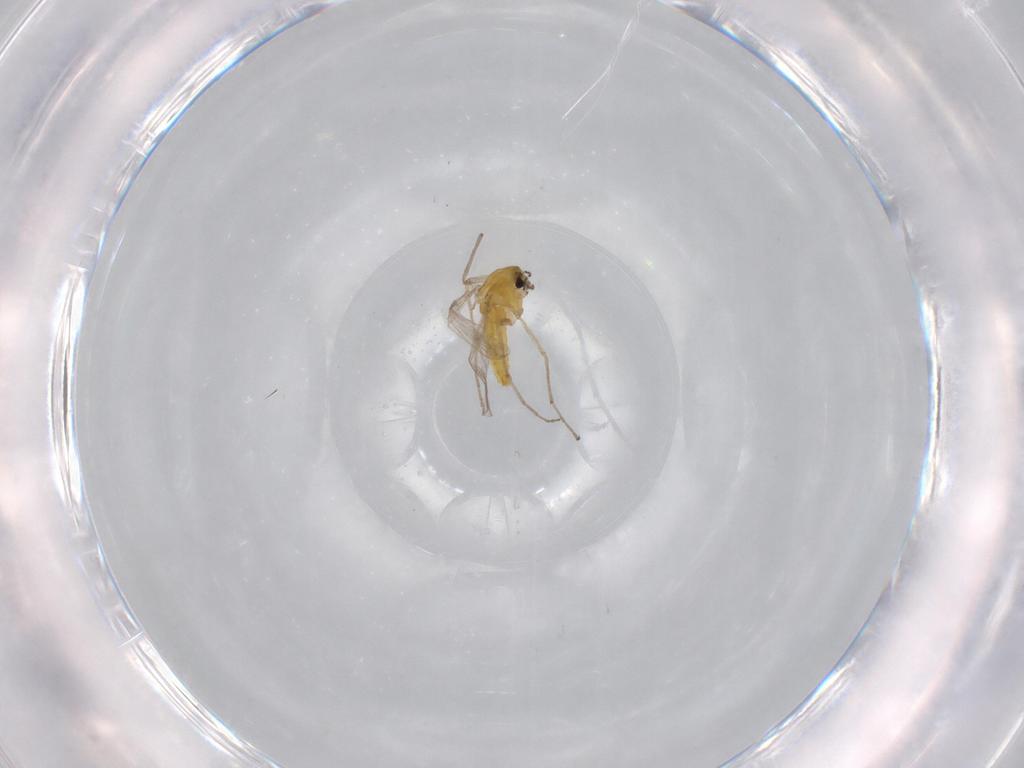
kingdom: Animalia
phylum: Arthropoda
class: Insecta
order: Diptera
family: Chironomidae
